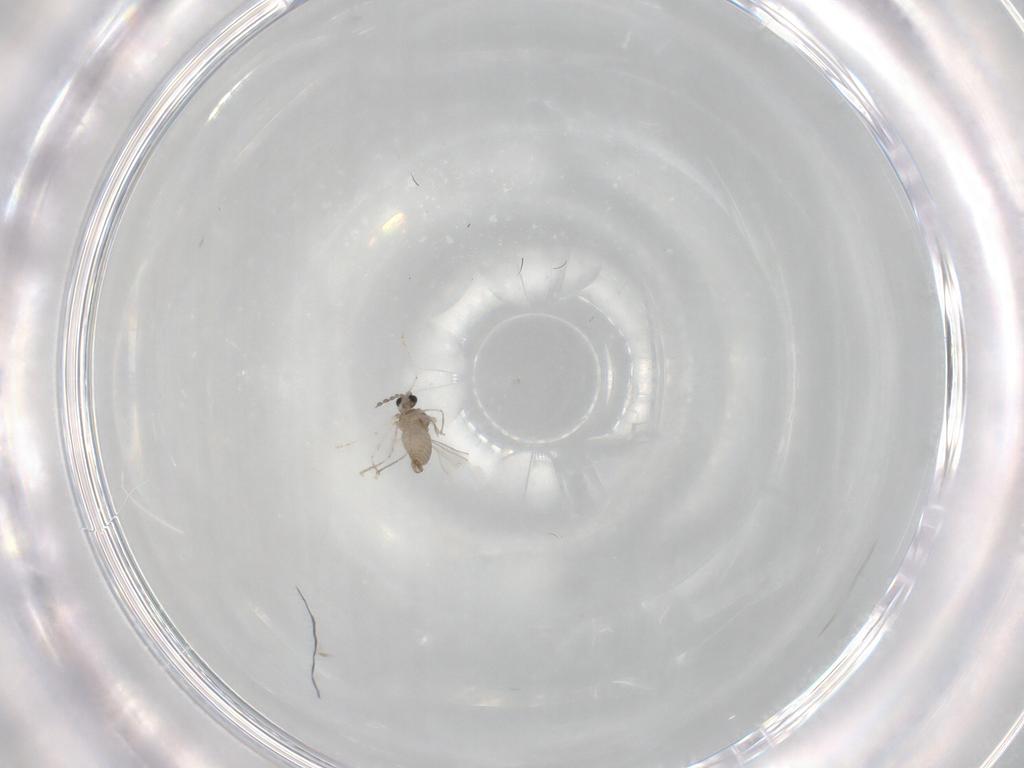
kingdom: Animalia
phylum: Arthropoda
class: Insecta
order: Diptera
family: Cecidomyiidae
